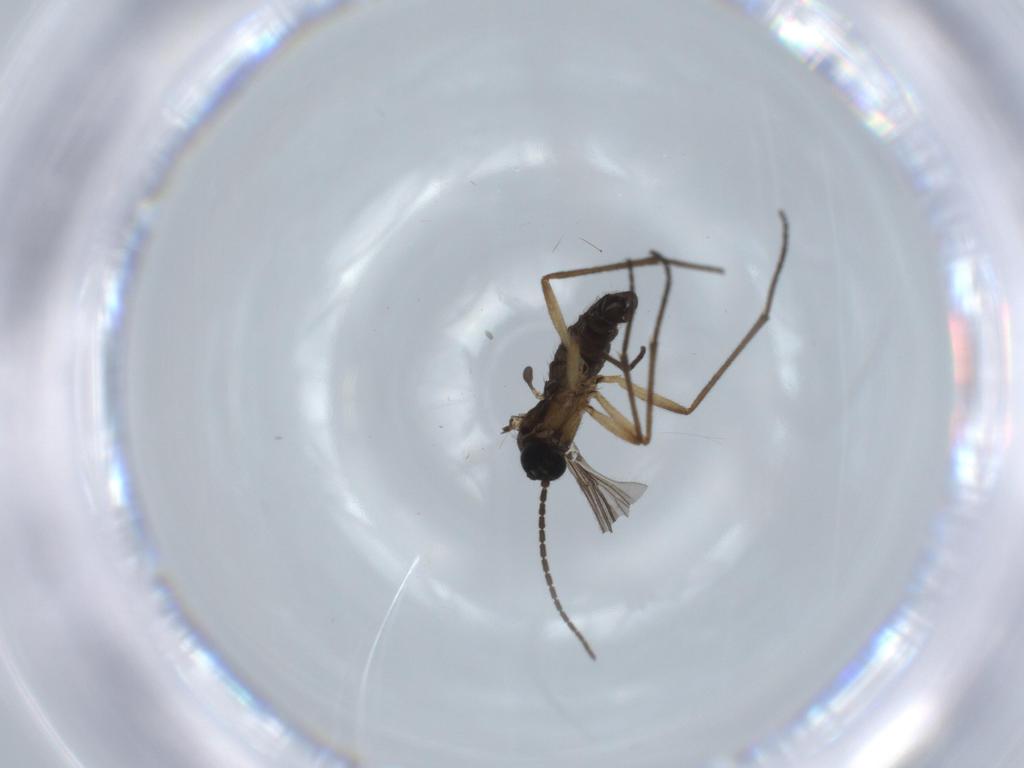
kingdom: Animalia
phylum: Arthropoda
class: Insecta
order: Diptera
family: Sciaridae
